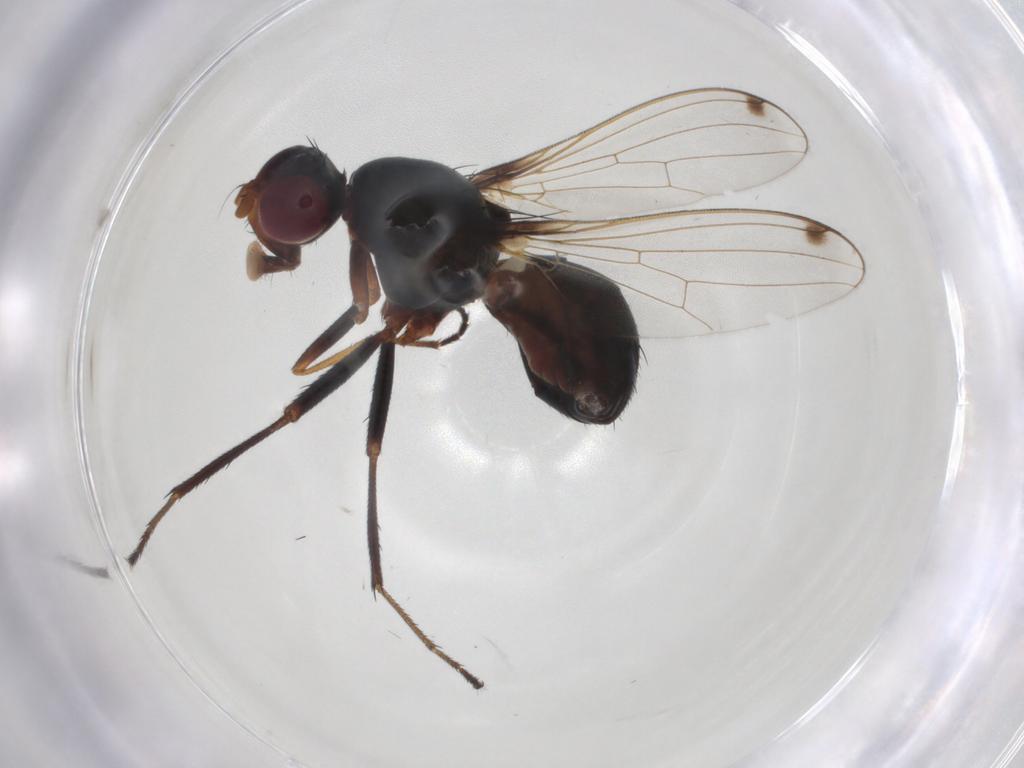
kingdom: Animalia
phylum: Arthropoda
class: Insecta
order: Diptera
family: Sepsidae
